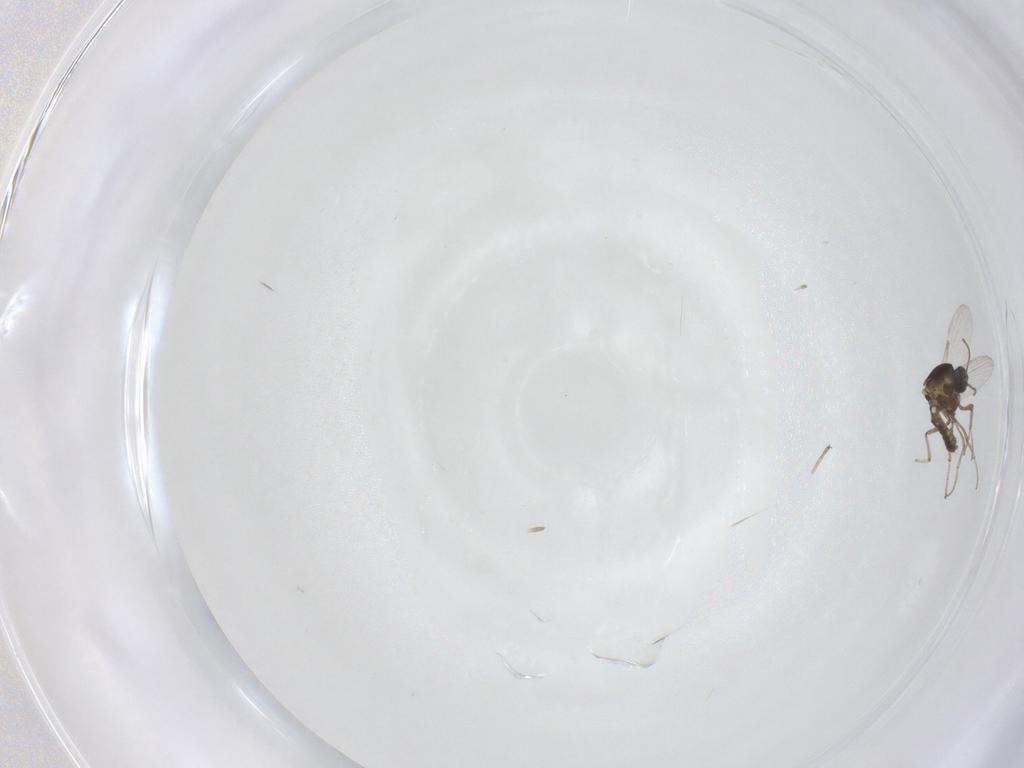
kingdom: Animalia
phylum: Arthropoda
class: Insecta
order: Diptera
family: Ceratopogonidae
